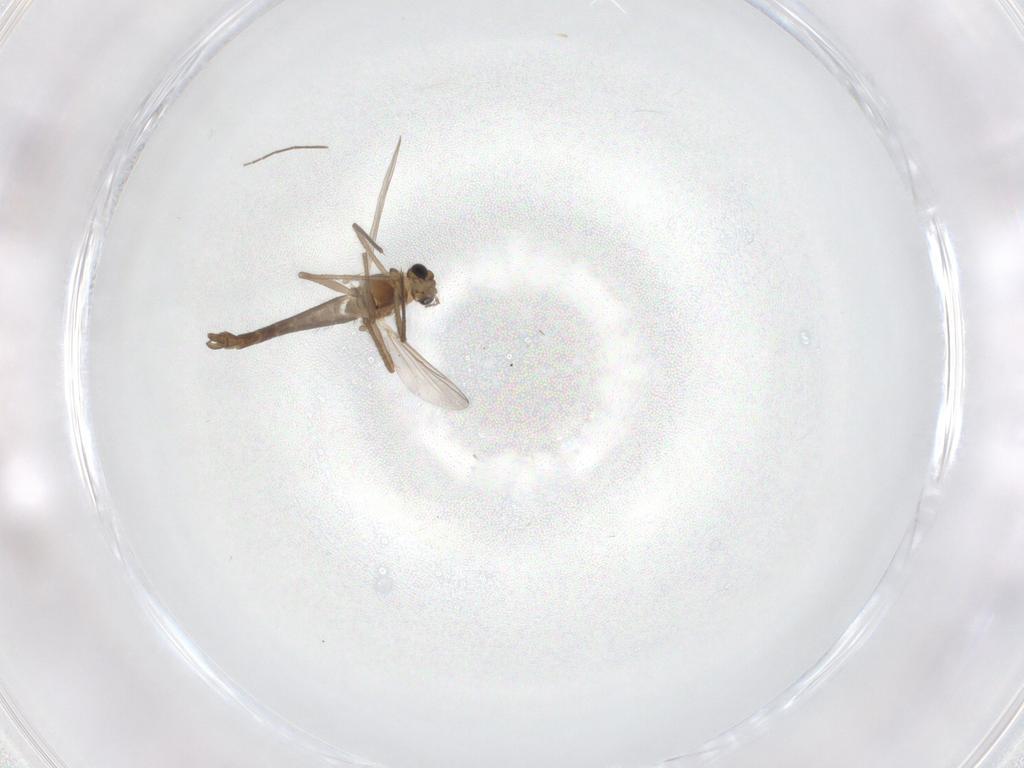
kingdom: Animalia
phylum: Arthropoda
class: Insecta
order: Diptera
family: Chironomidae
